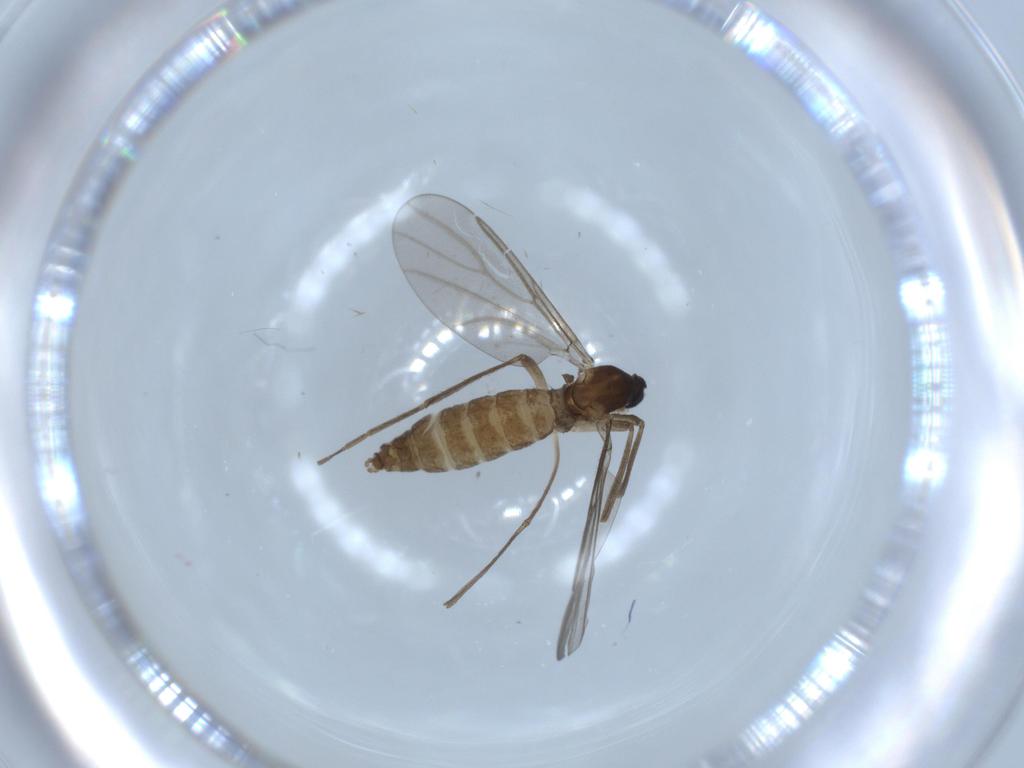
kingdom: Animalia
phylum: Arthropoda
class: Insecta
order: Diptera
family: Cecidomyiidae
